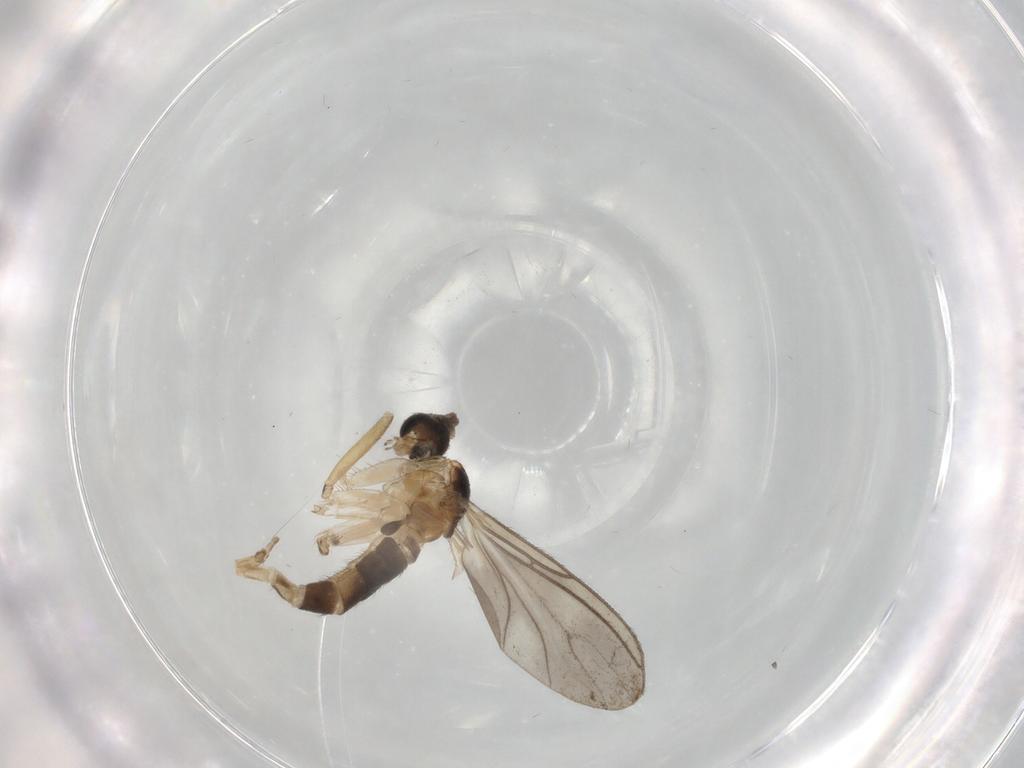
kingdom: Animalia
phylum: Arthropoda
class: Insecta
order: Diptera
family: Sciaridae
